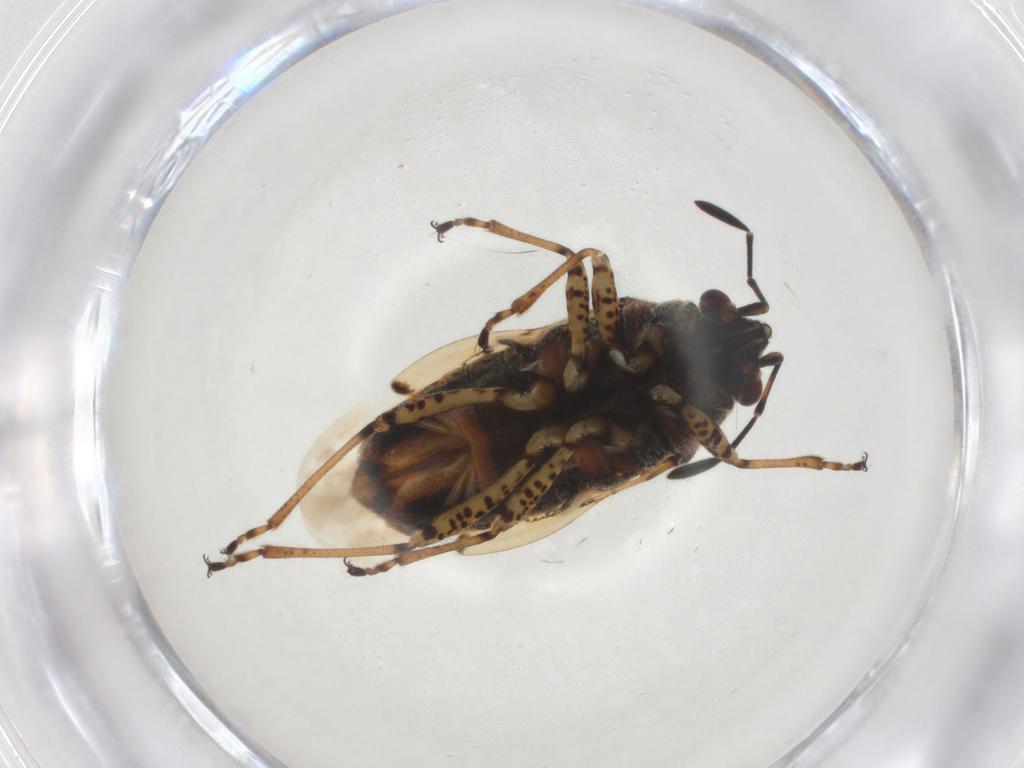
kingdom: Animalia
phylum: Arthropoda
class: Insecta
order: Hemiptera
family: Lygaeidae
